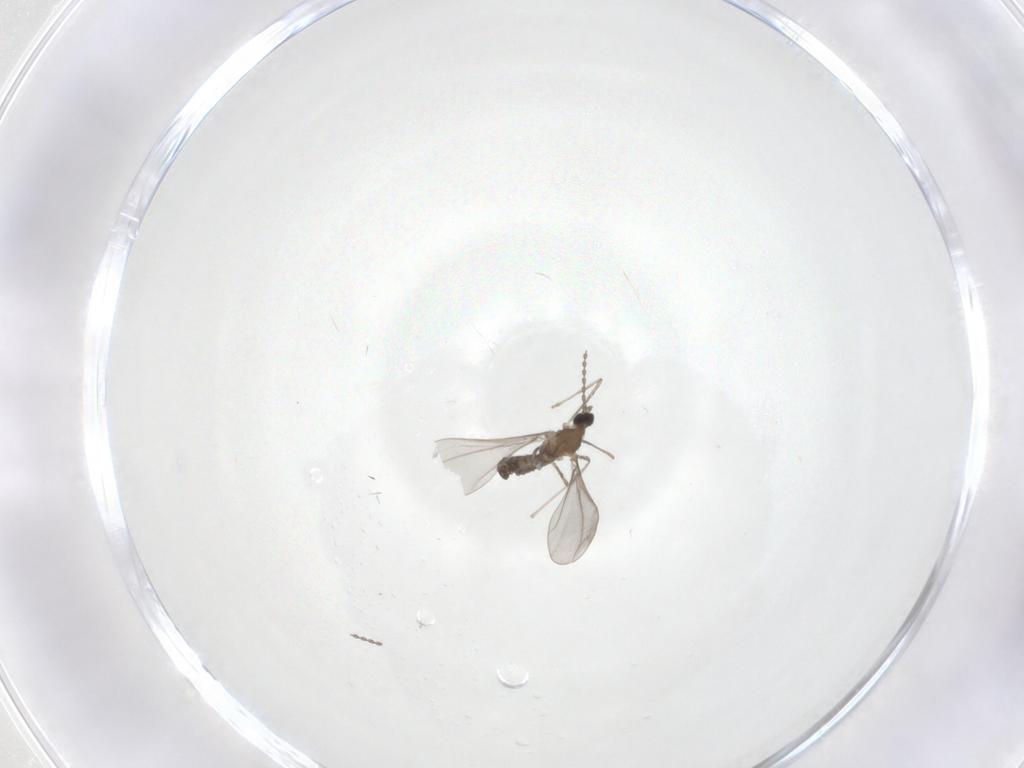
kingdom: Animalia
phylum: Arthropoda
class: Insecta
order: Diptera
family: Cecidomyiidae
